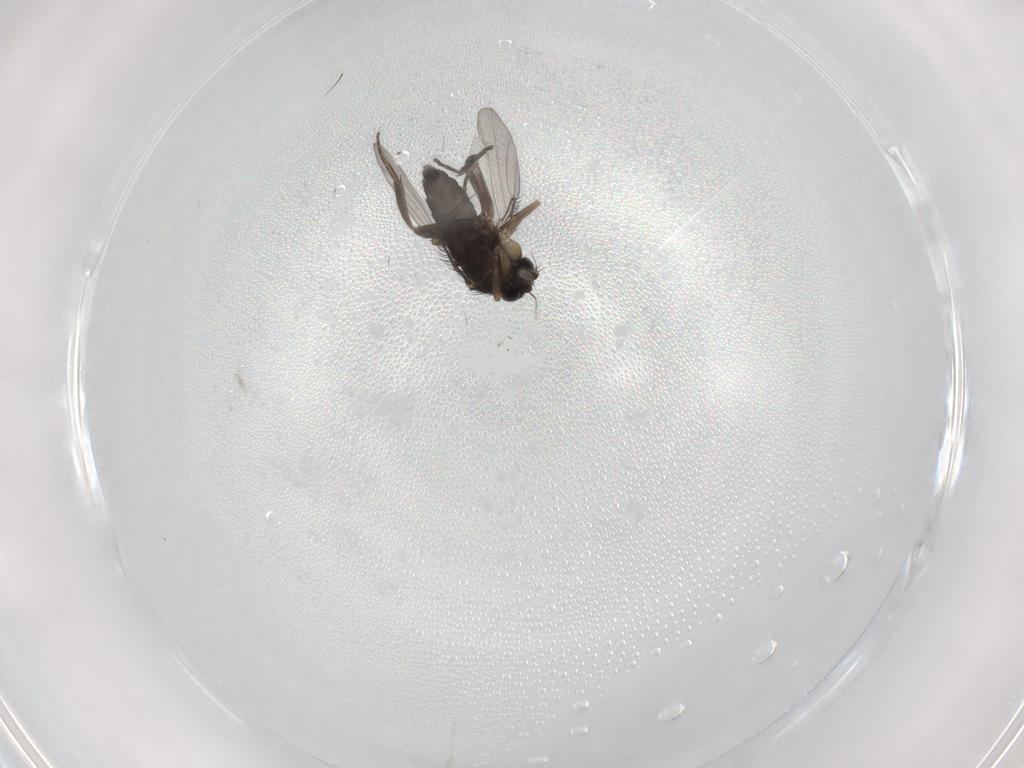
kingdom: Animalia
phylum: Arthropoda
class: Insecta
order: Diptera
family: Phoridae
